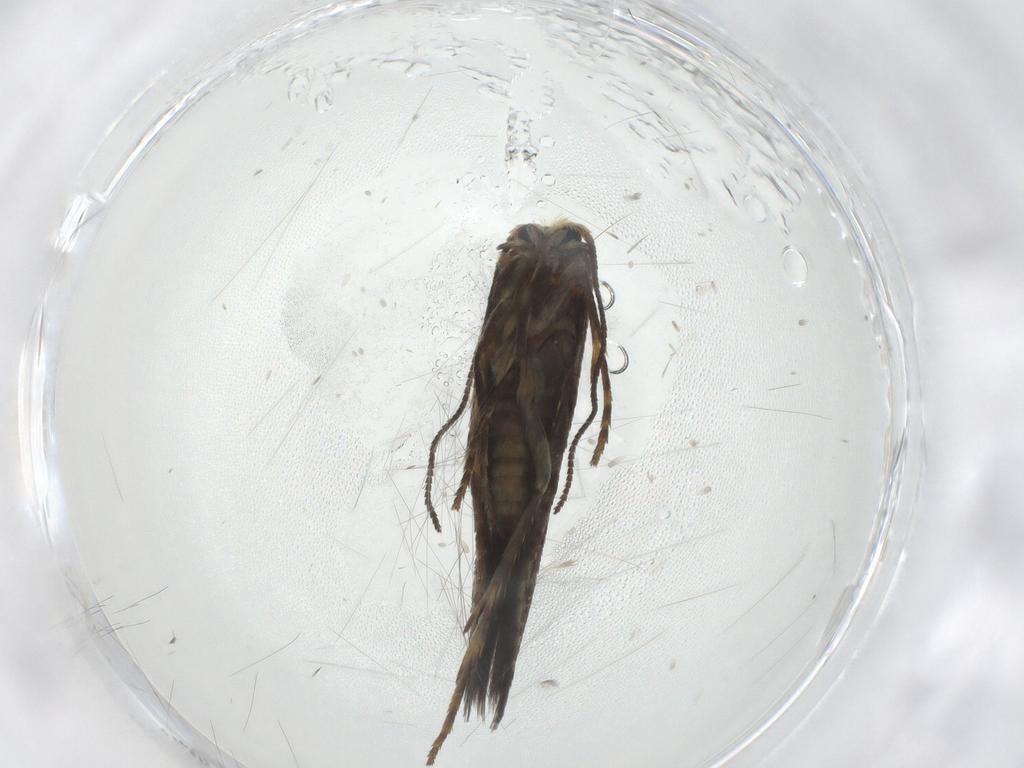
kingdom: Animalia
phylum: Arthropoda
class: Insecta
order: Lepidoptera
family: Nepticulidae
